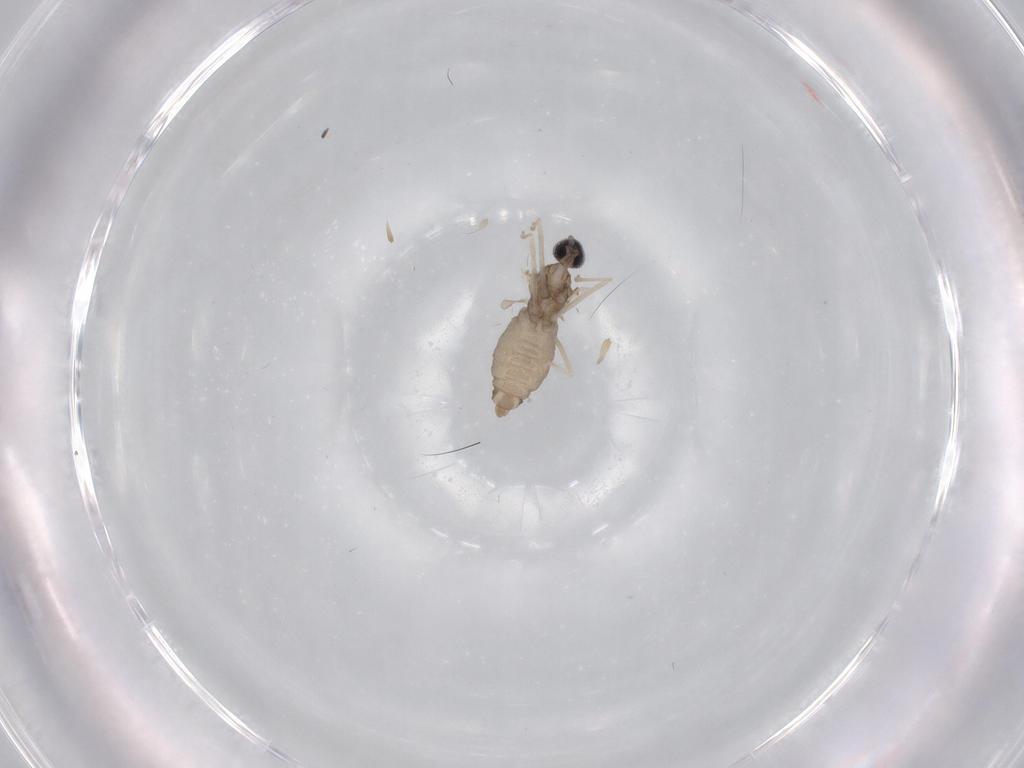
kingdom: Animalia
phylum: Arthropoda
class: Insecta
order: Diptera
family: Cecidomyiidae
